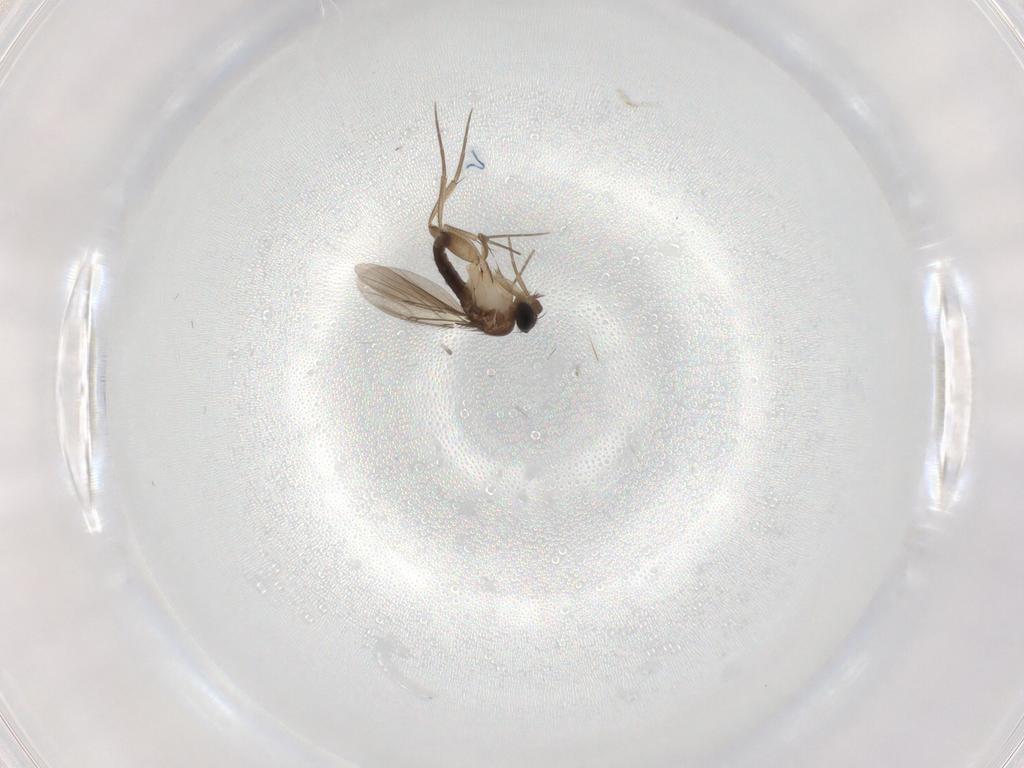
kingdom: Animalia
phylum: Arthropoda
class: Insecta
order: Diptera
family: Phoridae
